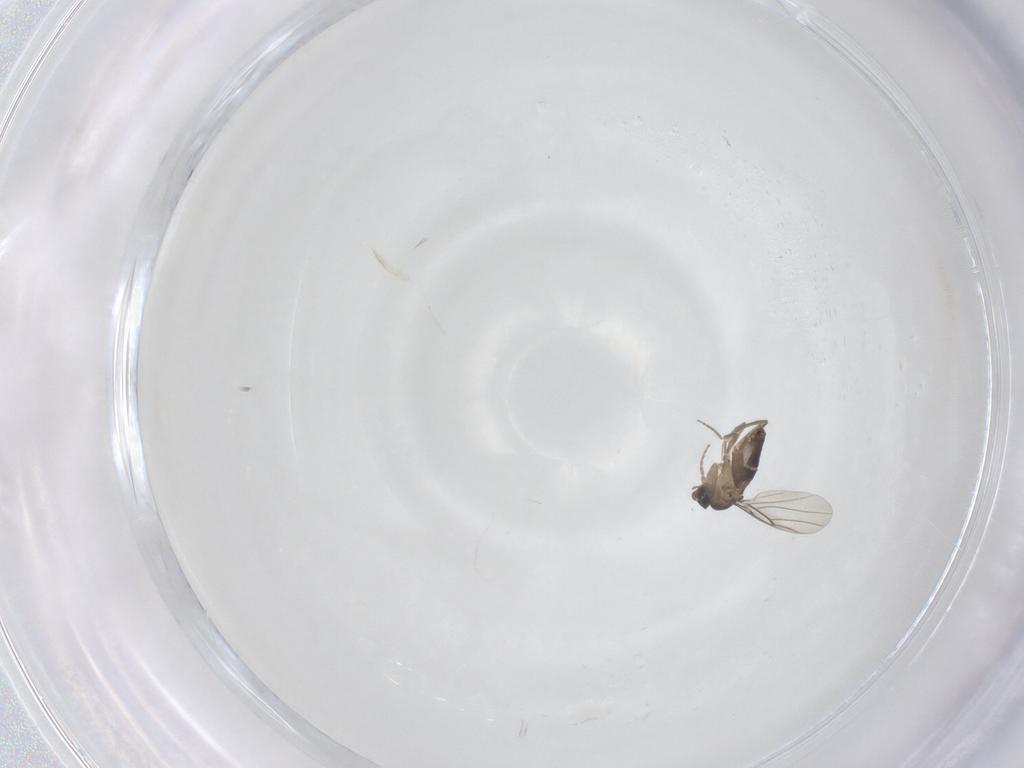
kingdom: Animalia
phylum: Arthropoda
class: Insecta
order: Diptera
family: Phoridae
